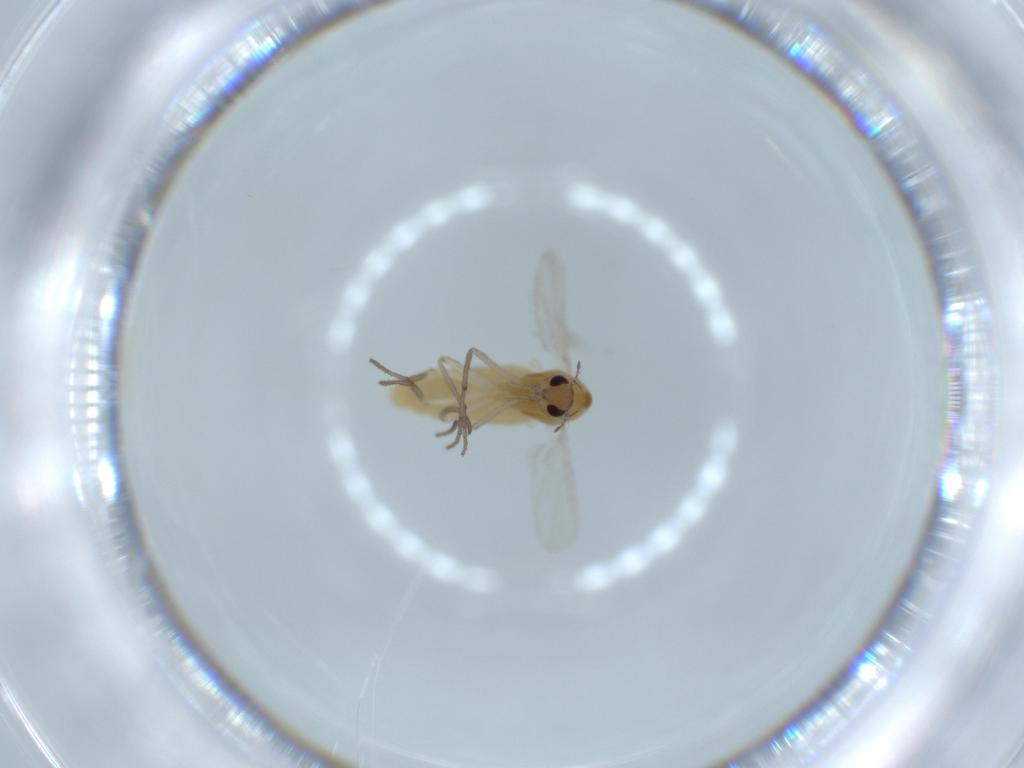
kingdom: Animalia
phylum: Arthropoda
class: Insecta
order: Diptera
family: Chironomidae
